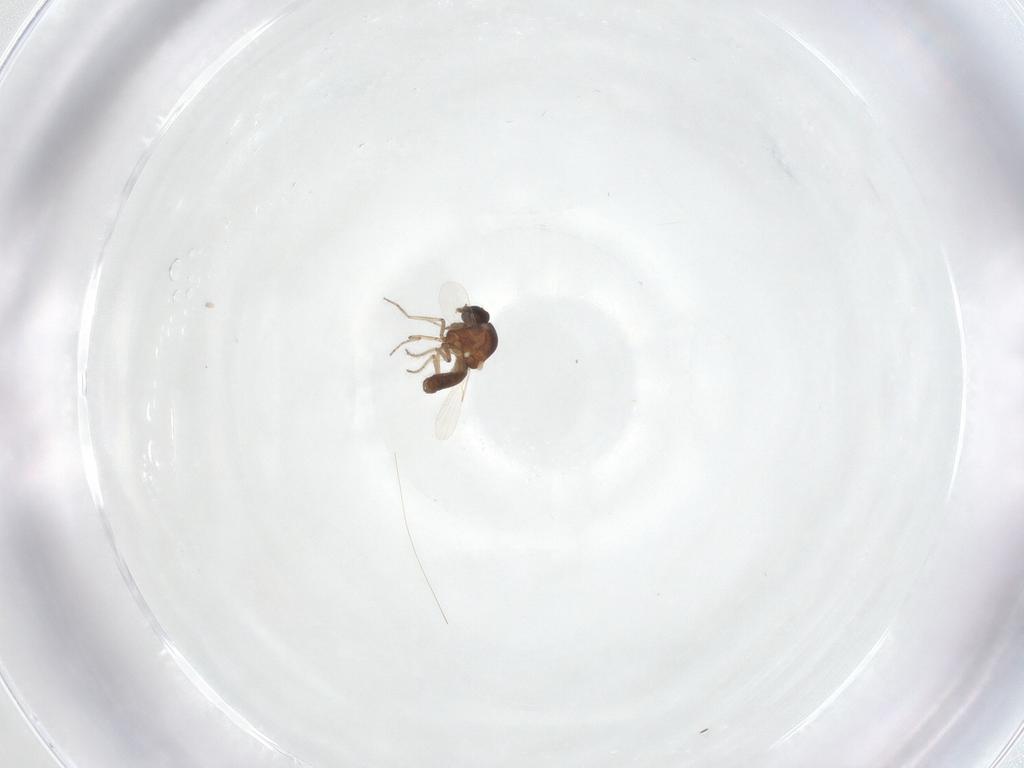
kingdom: Animalia
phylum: Arthropoda
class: Insecta
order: Diptera
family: Ceratopogonidae
